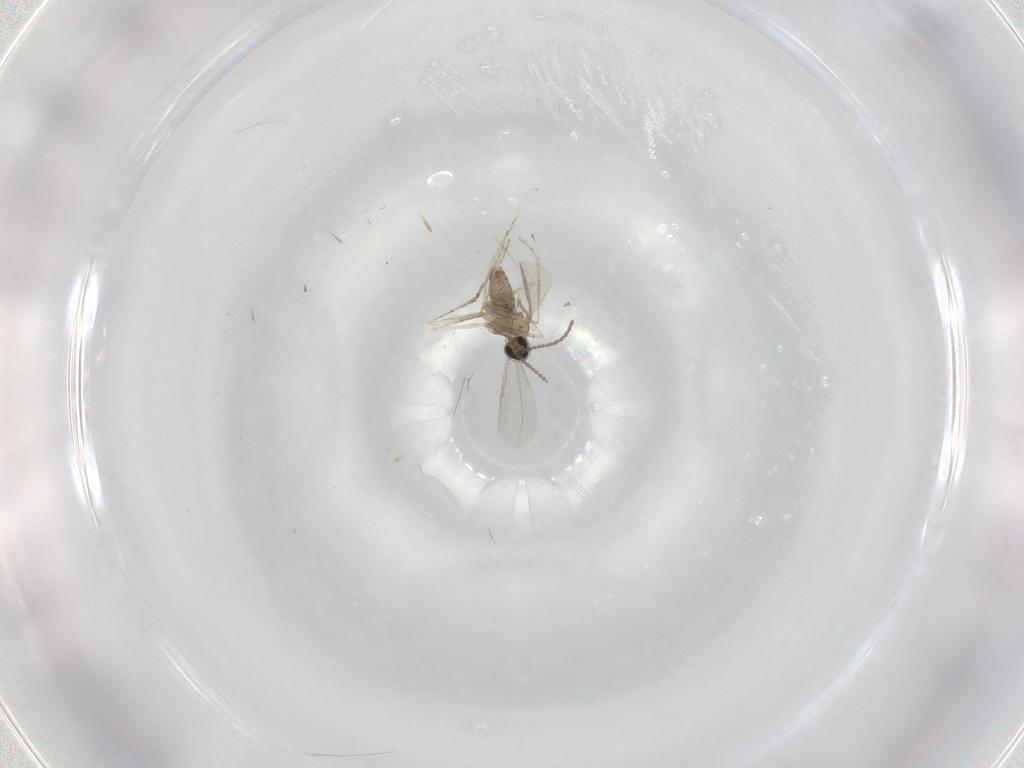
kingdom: Animalia
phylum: Arthropoda
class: Insecta
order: Diptera
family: Cecidomyiidae
